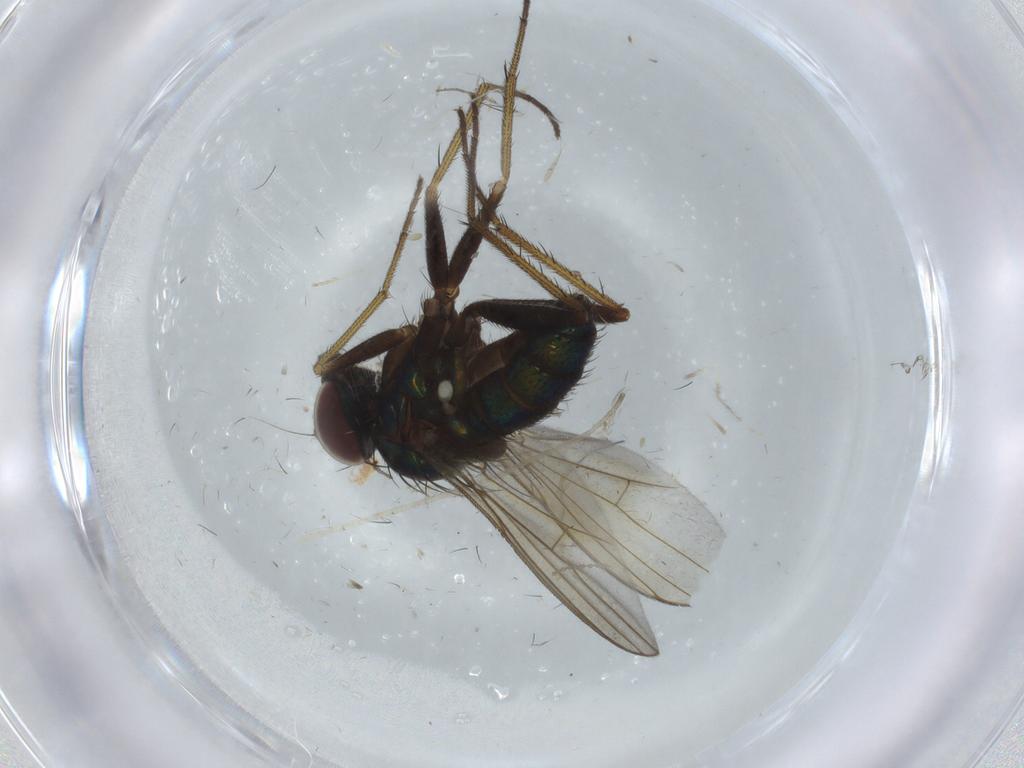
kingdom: Animalia
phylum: Arthropoda
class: Insecta
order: Diptera
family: Dolichopodidae
